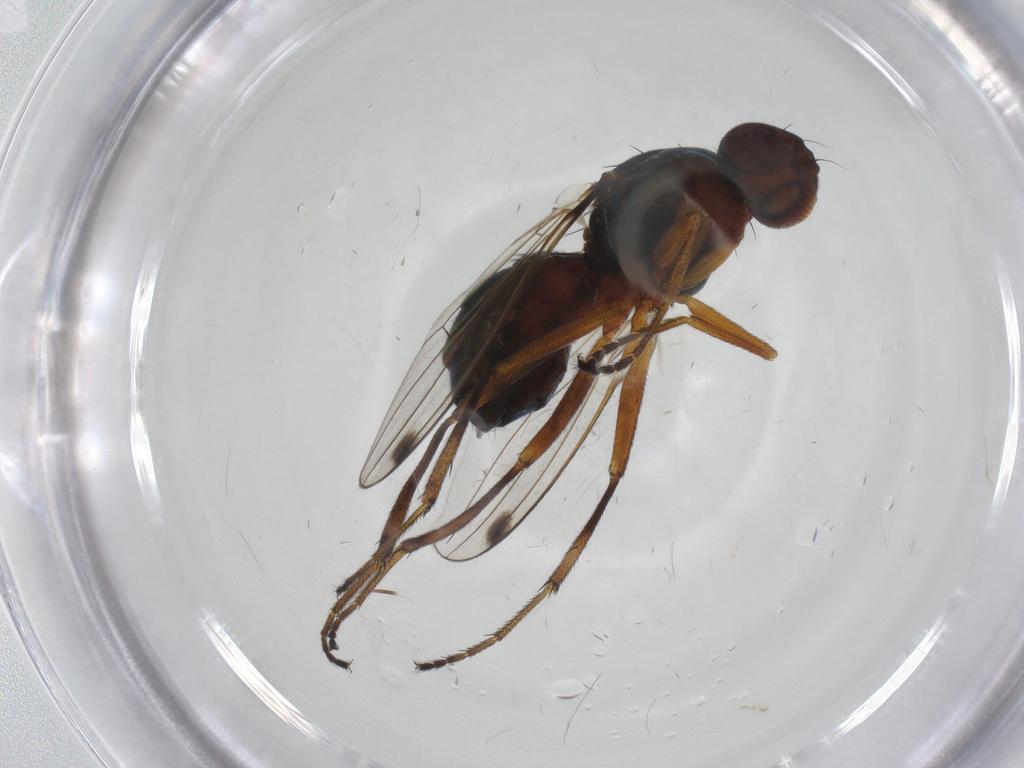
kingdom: Animalia
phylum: Arthropoda
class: Insecta
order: Diptera
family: Sepsidae
